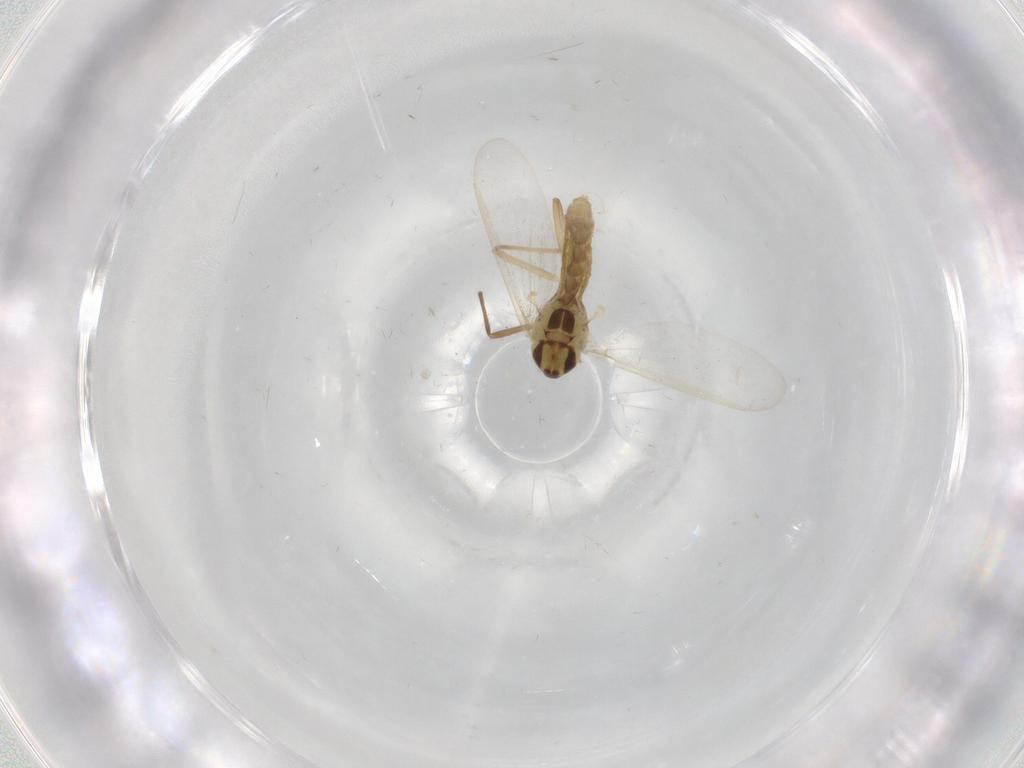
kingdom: Animalia
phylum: Arthropoda
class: Insecta
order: Diptera
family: Chironomidae
